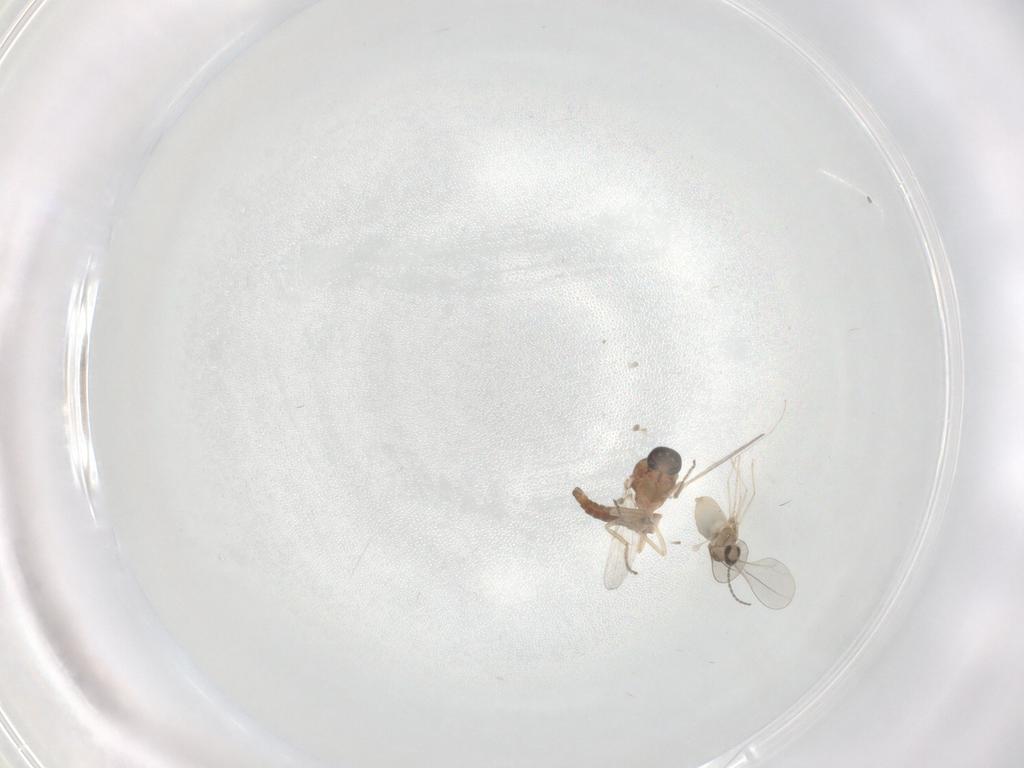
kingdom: Animalia
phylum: Arthropoda
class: Insecta
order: Diptera
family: Ceratopogonidae
